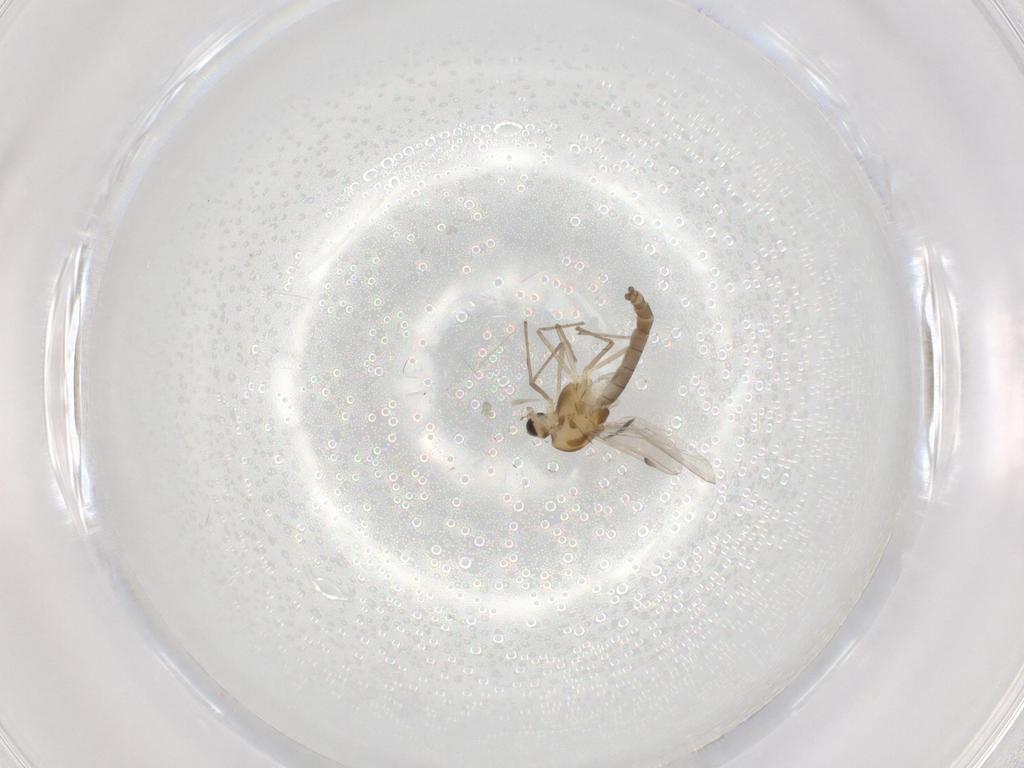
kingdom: Animalia
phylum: Arthropoda
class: Insecta
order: Diptera
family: Chironomidae
